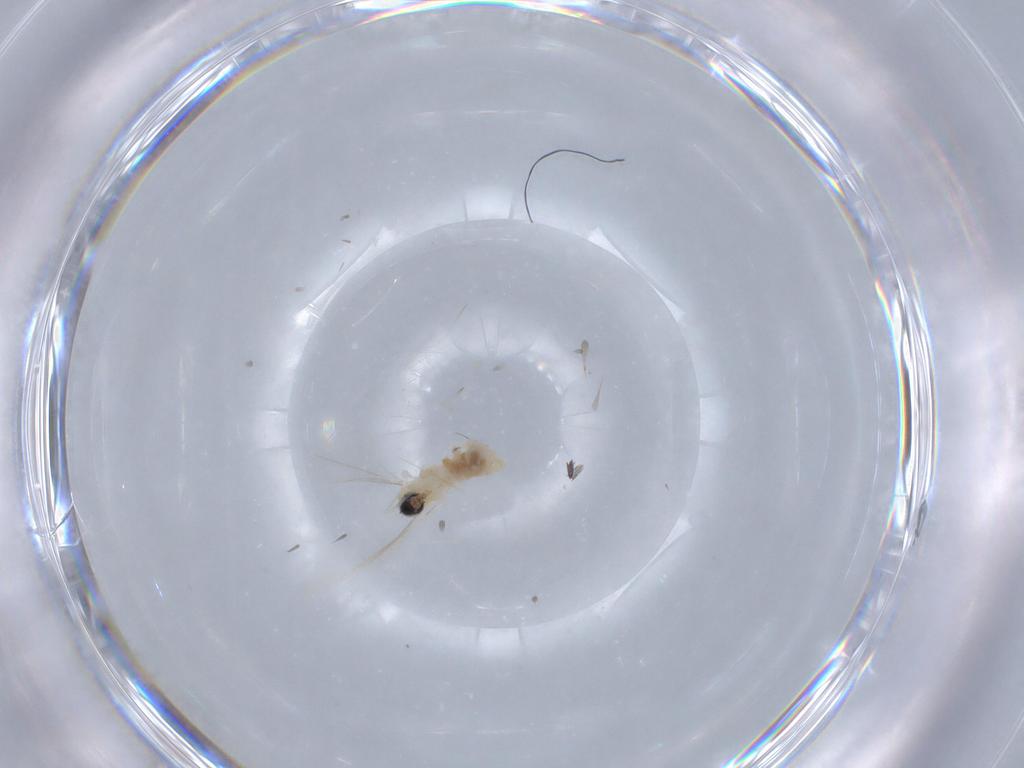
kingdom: Animalia
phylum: Arthropoda
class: Insecta
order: Diptera
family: Cecidomyiidae
